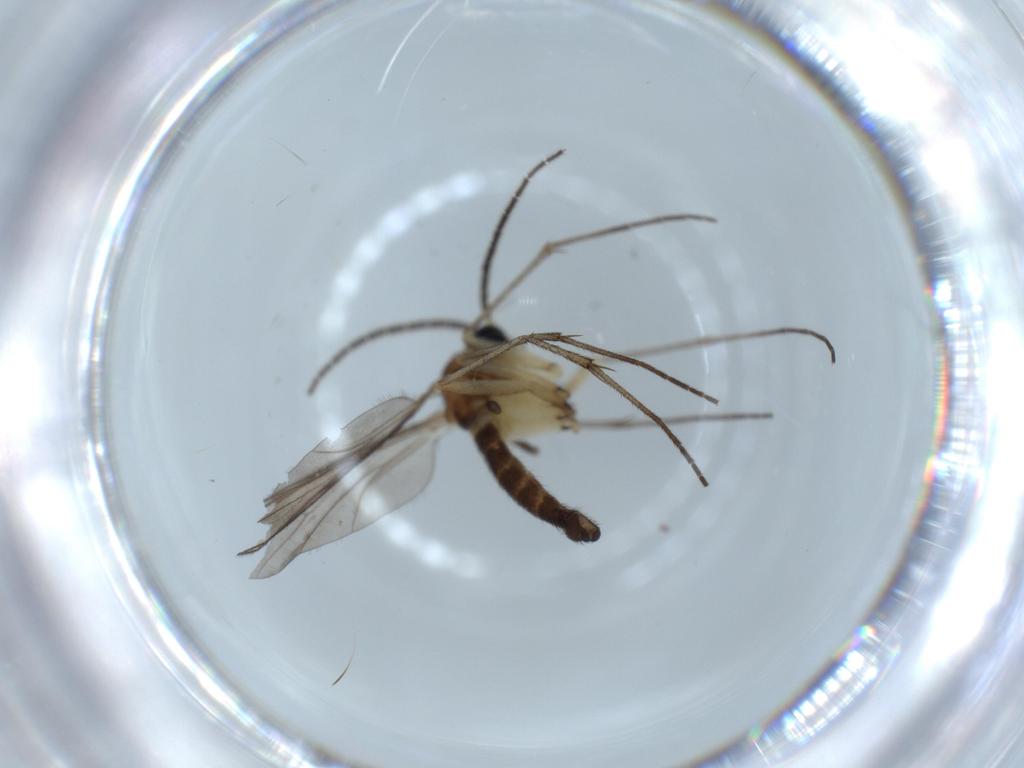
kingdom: Animalia
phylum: Arthropoda
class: Insecta
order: Diptera
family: Sciaridae
